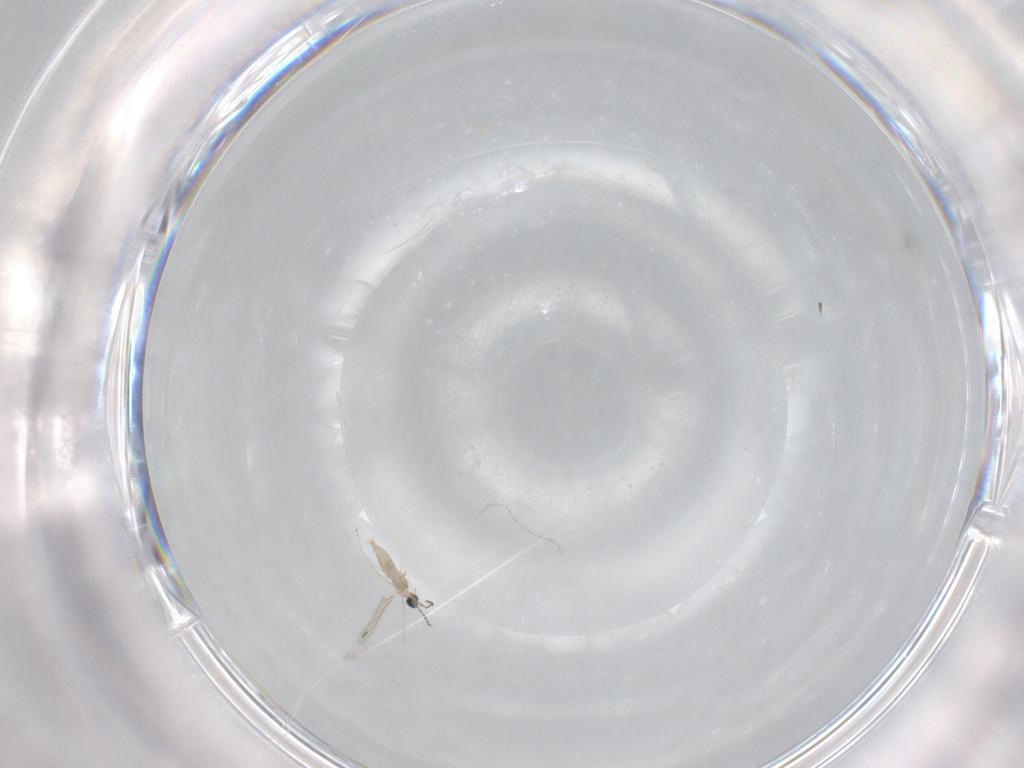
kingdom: Animalia
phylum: Arthropoda
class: Insecta
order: Diptera
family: Cecidomyiidae
